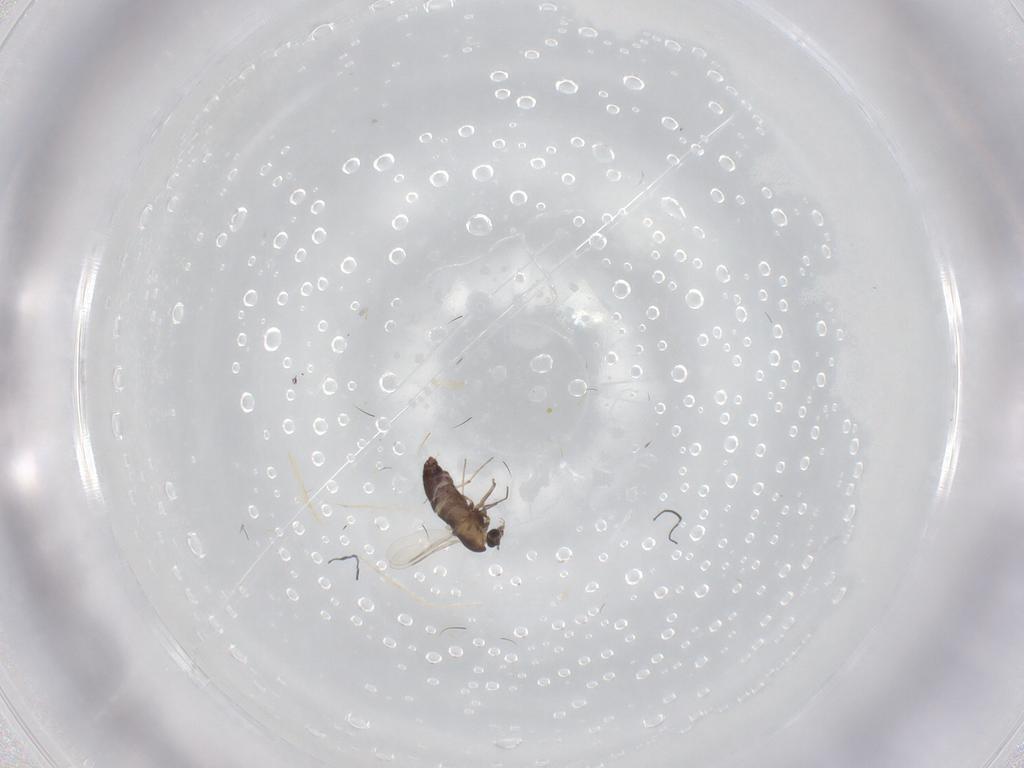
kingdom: Animalia
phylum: Arthropoda
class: Insecta
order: Diptera
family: Chironomidae
